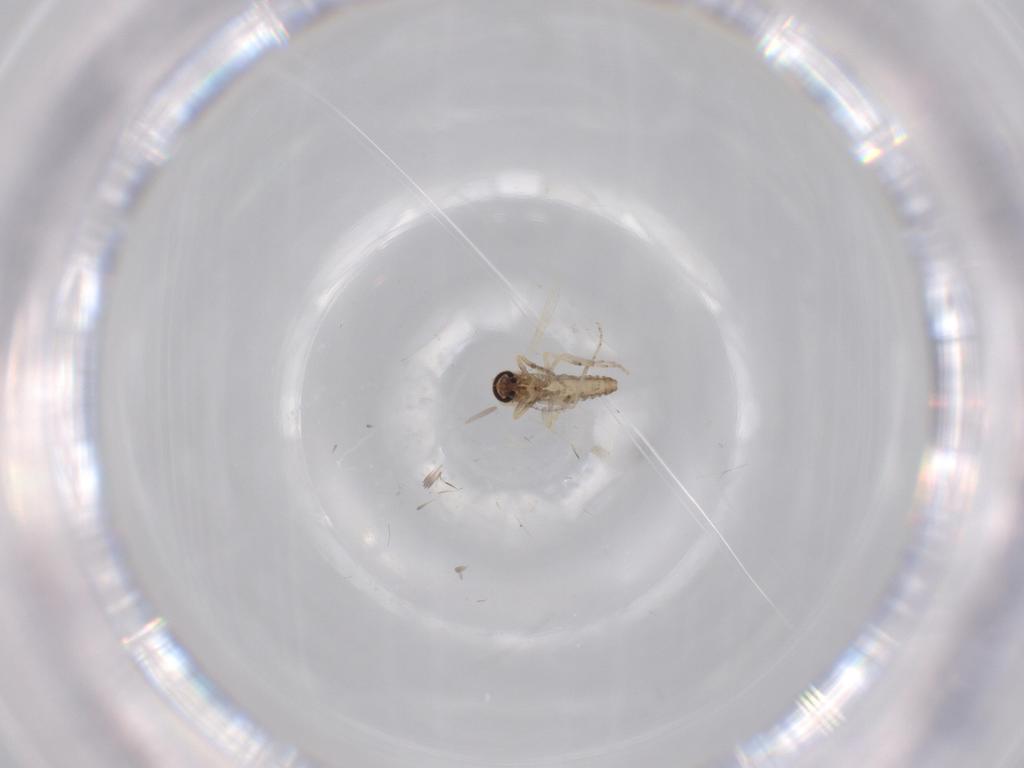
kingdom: Animalia
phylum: Arthropoda
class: Insecta
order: Diptera
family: Ceratopogonidae
